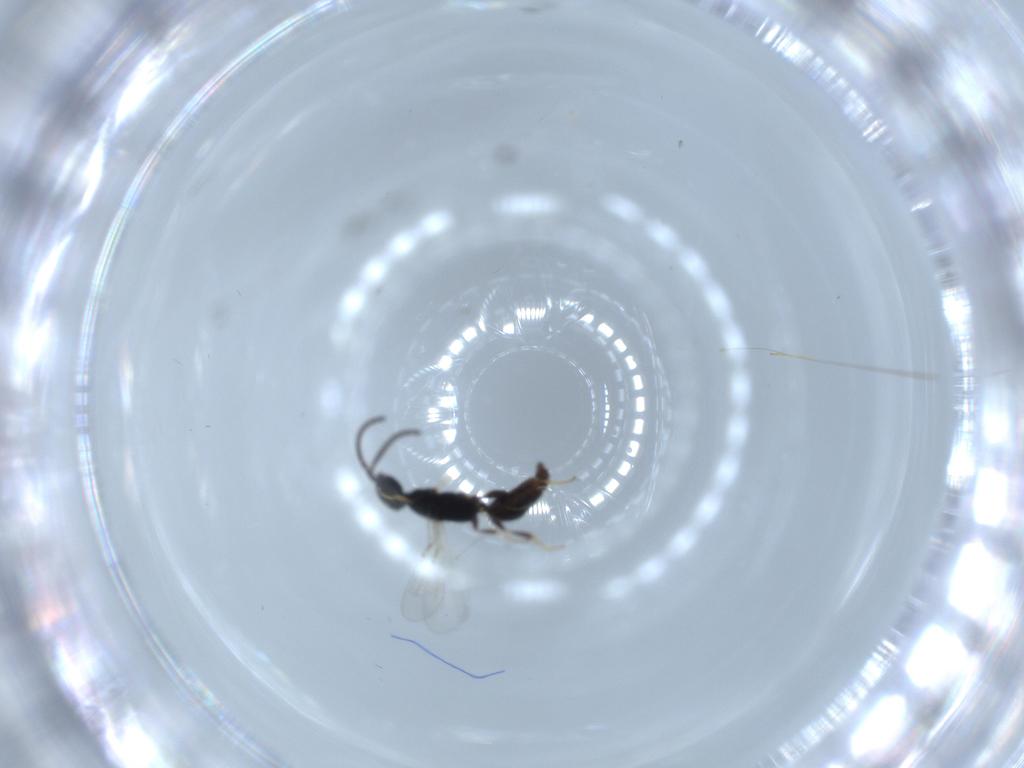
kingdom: Animalia
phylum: Arthropoda
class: Insecta
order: Hymenoptera
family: Bethylidae
